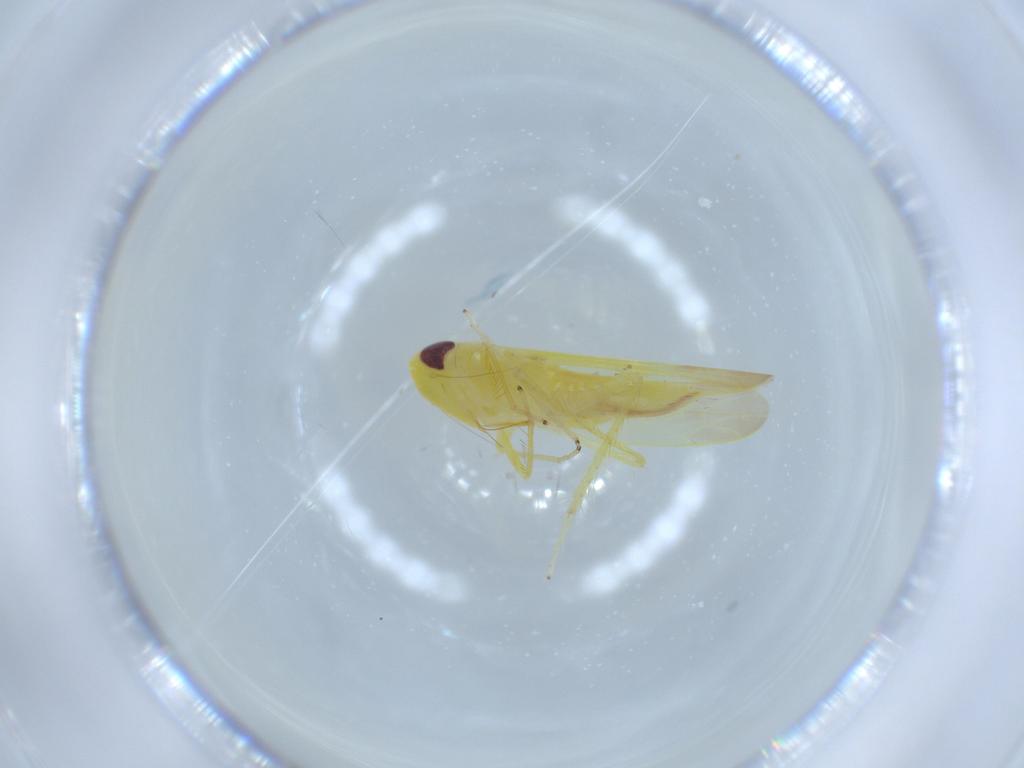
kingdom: Animalia
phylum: Arthropoda
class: Insecta
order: Hemiptera
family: Cicadellidae
